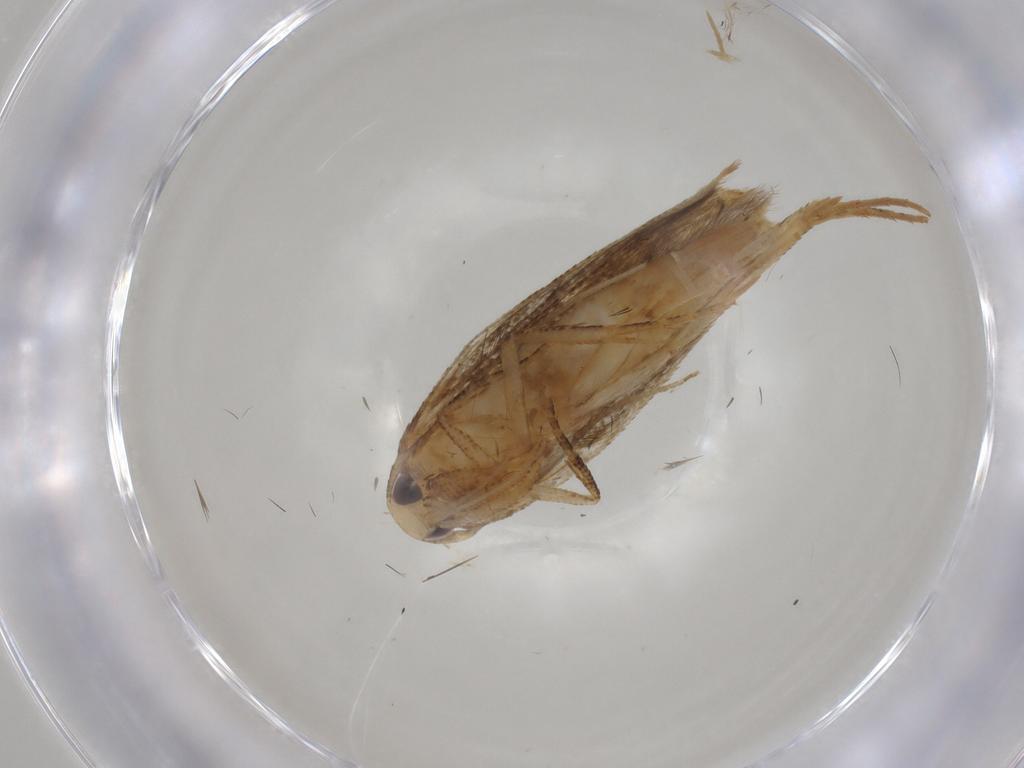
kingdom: Animalia
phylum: Arthropoda
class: Insecta
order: Lepidoptera
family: Cosmopterigidae
